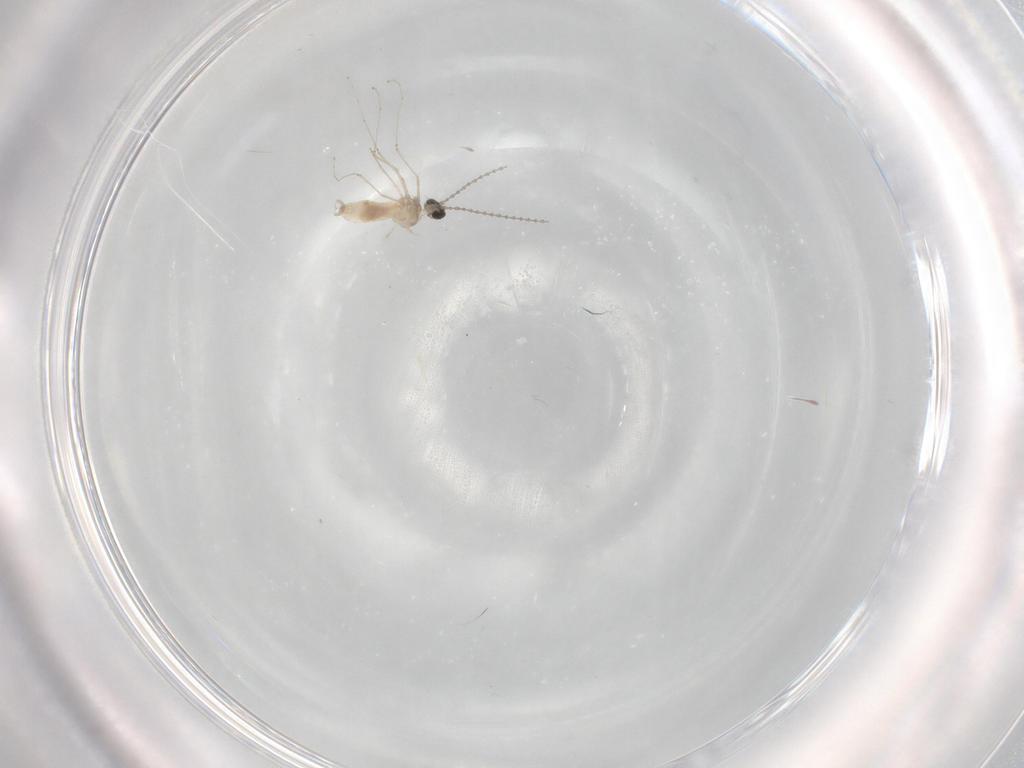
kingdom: Animalia
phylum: Arthropoda
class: Insecta
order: Diptera
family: Cecidomyiidae
